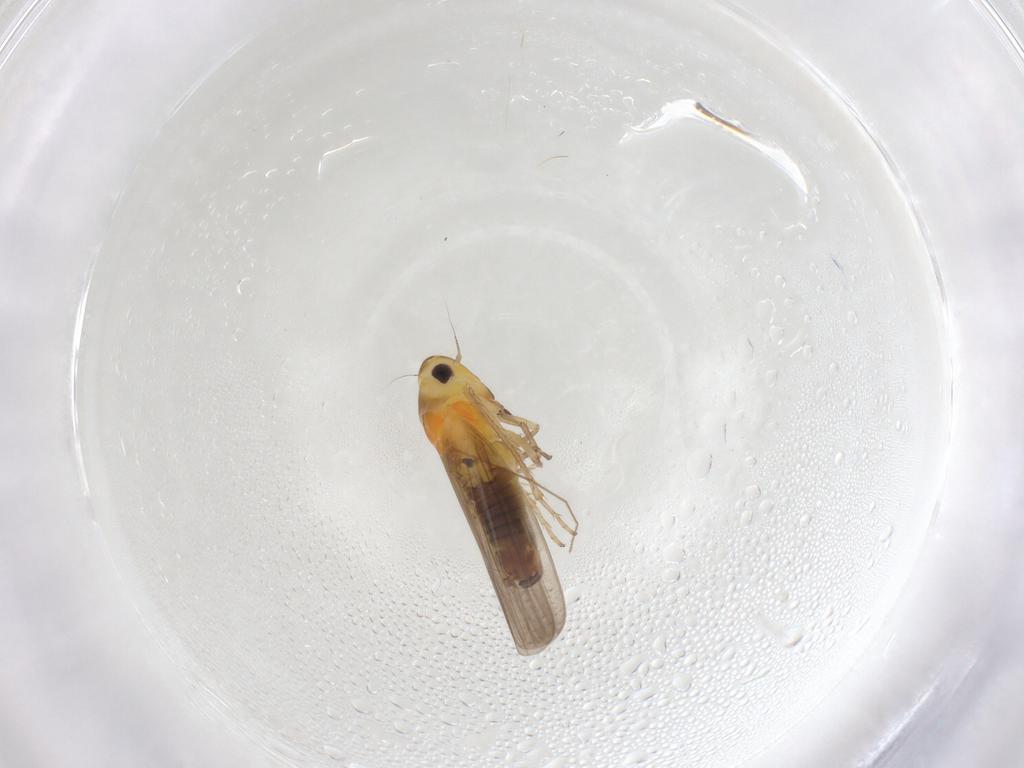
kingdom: Animalia
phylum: Arthropoda
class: Insecta
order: Hemiptera
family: Cicadellidae
